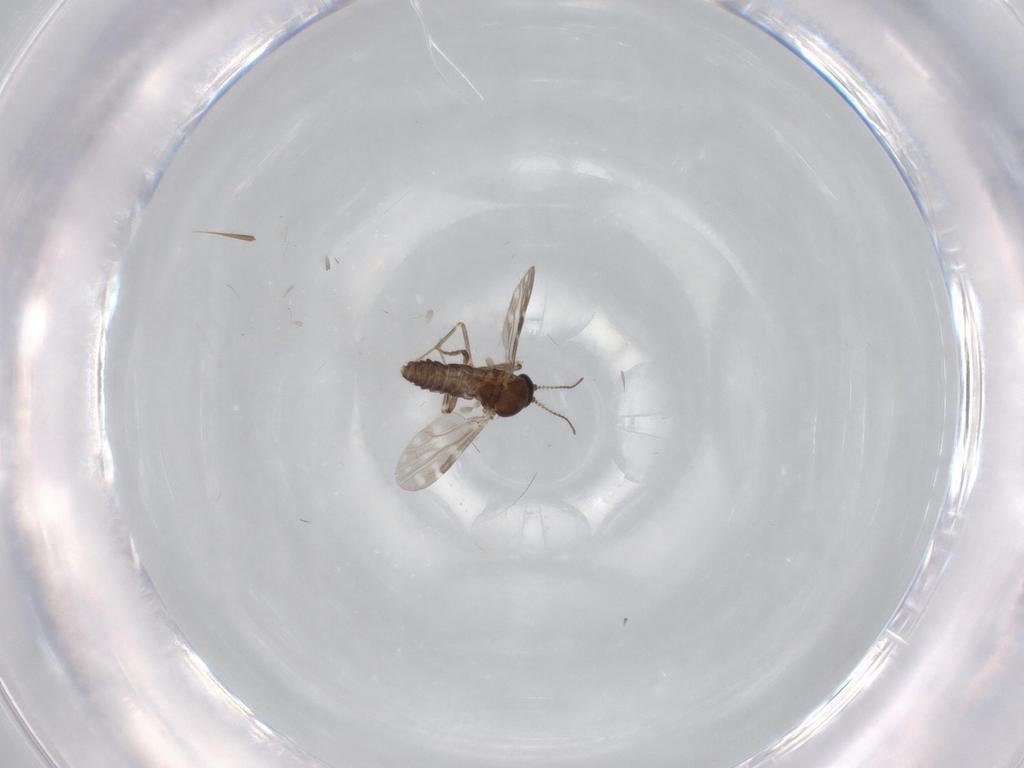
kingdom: Animalia
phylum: Arthropoda
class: Insecta
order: Diptera
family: Ceratopogonidae
